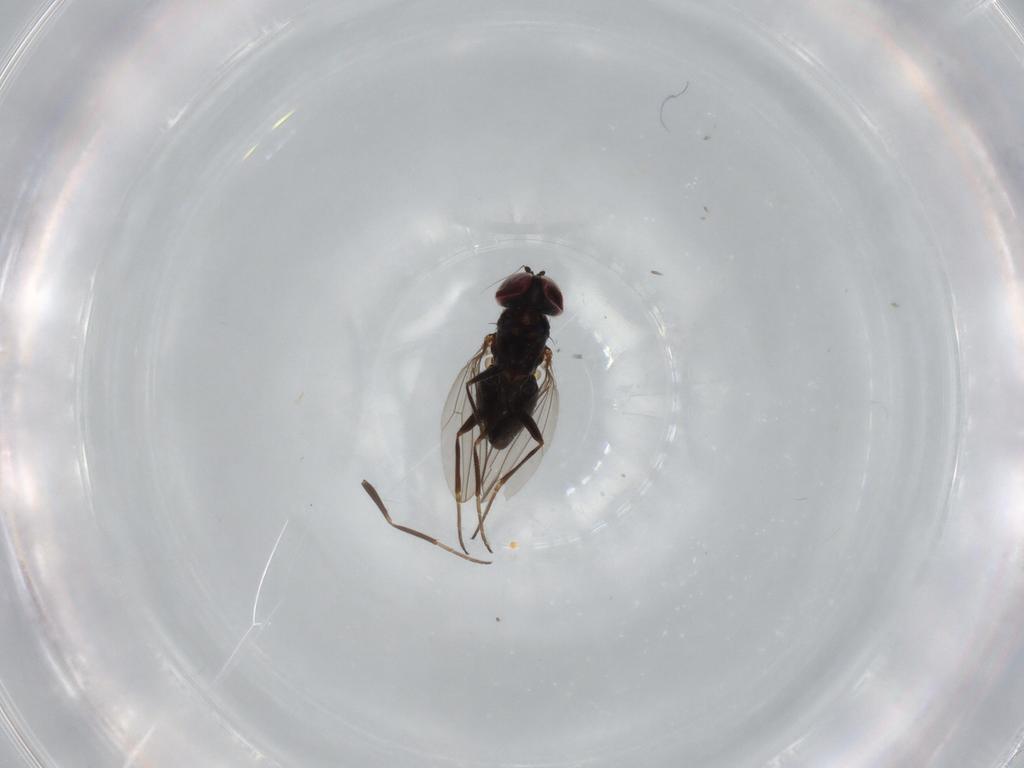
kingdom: Animalia
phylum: Arthropoda
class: Insecta
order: Diptera
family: Dolichopodidae
